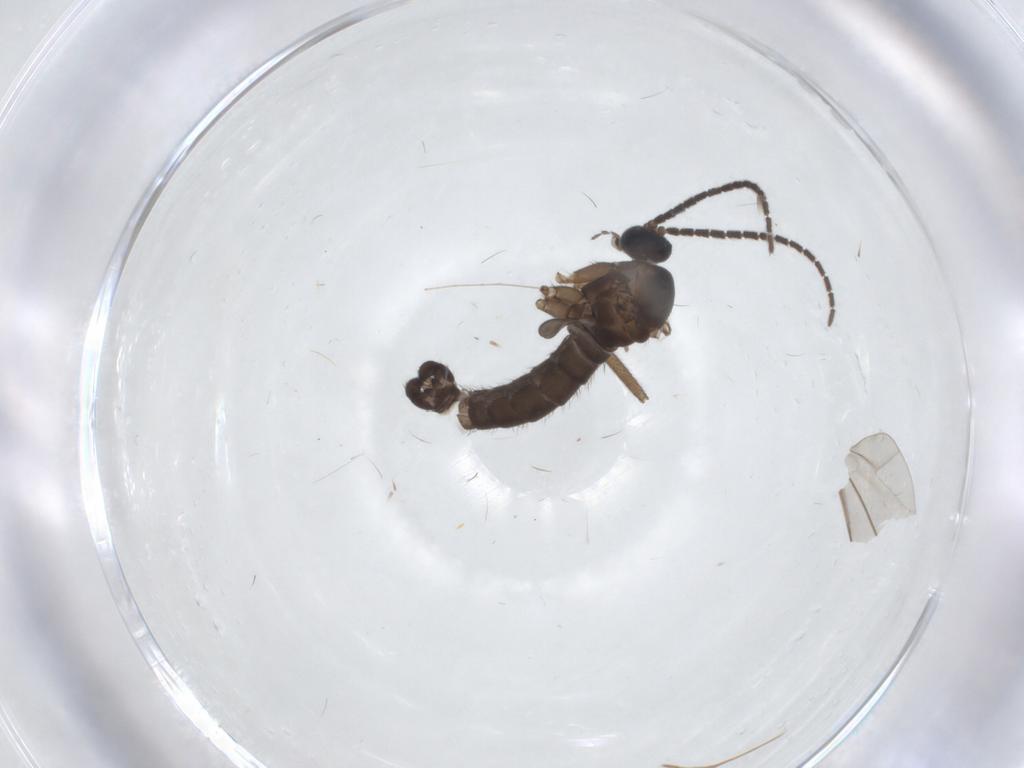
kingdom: Animalia
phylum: Arthropoda
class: Insecta
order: Diptera
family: Sciaridae
